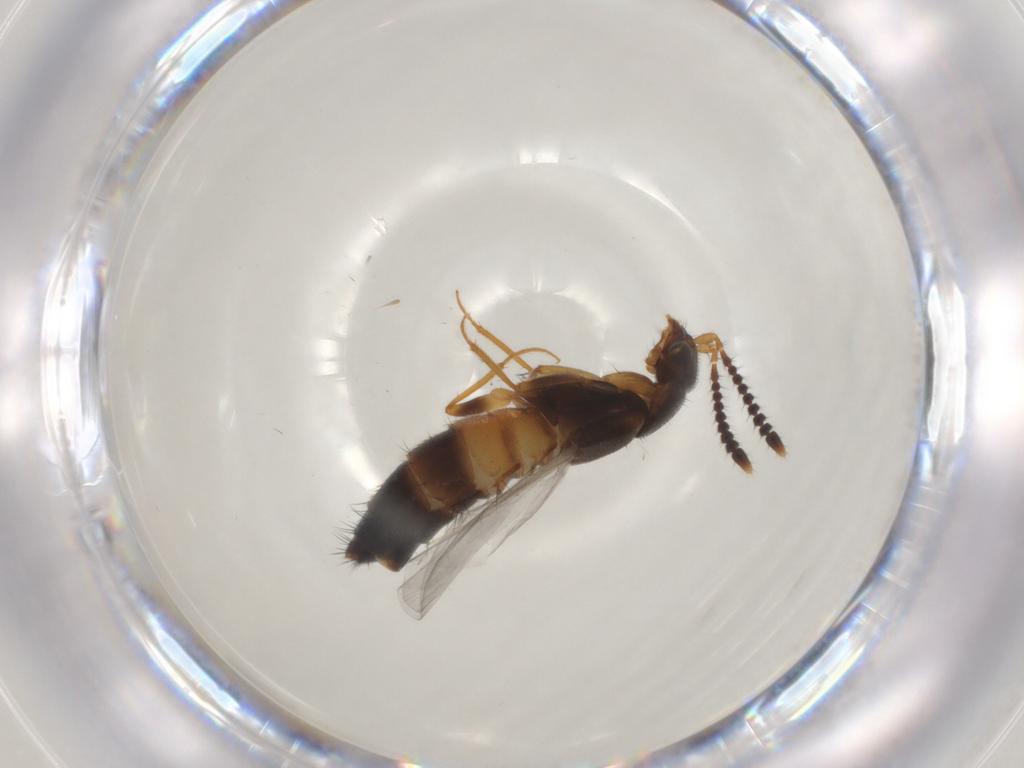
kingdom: Animalia
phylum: Arthropoda
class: Insecta
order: Coleoptera
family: Staphylinidae
